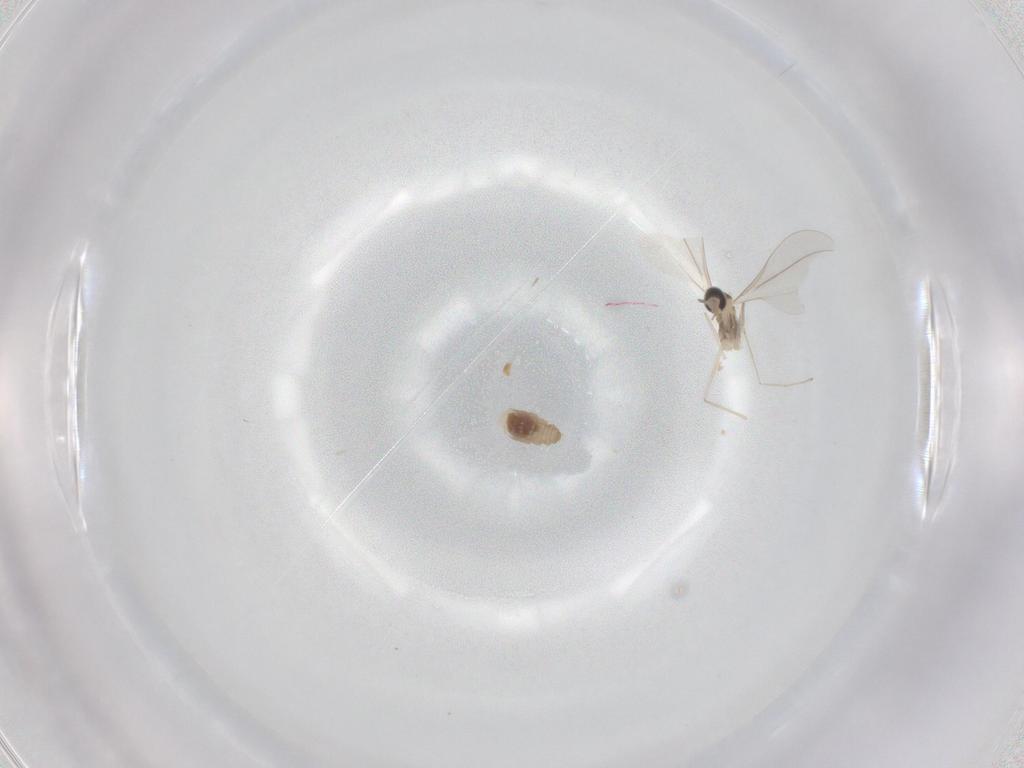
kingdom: Animalia
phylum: Arthropoda
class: Insecta
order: Diptera
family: Cecidomyiidae
